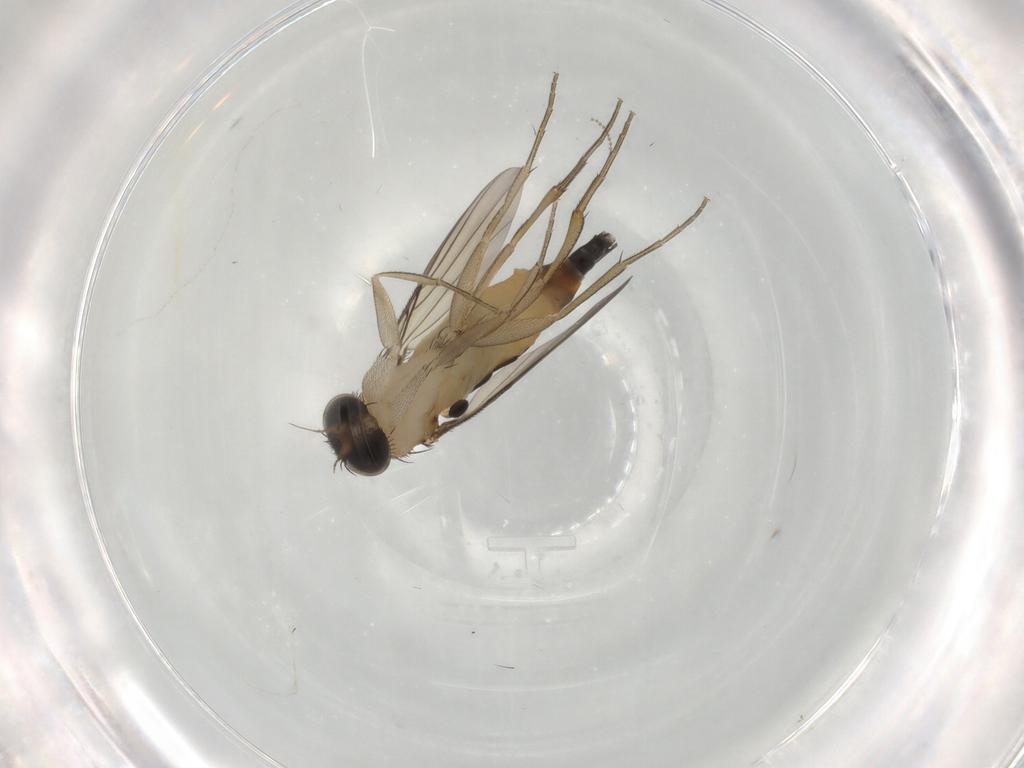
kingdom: Animalia
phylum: Arthropoda
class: Insecta
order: Diptera
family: Phoridae
